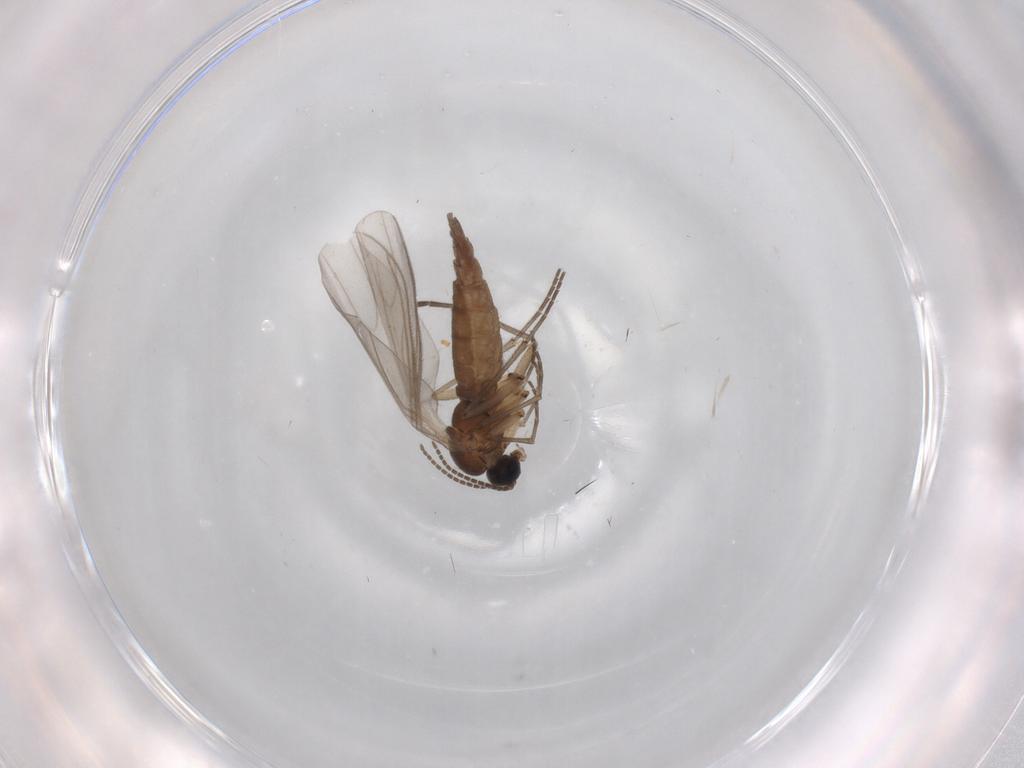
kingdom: Animalia
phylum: Arthropoda
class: Insecta
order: Diptera
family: Sciaridae
